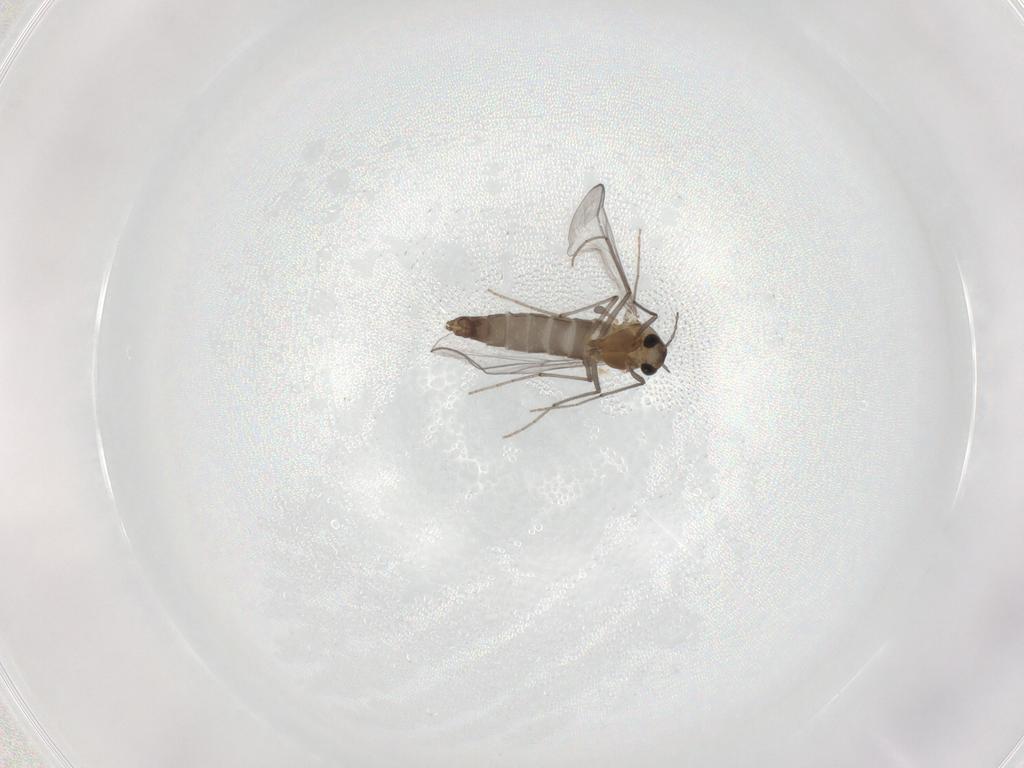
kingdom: Animalia
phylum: Arthropoda
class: Insecta
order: Diptera
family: Chironomidae
